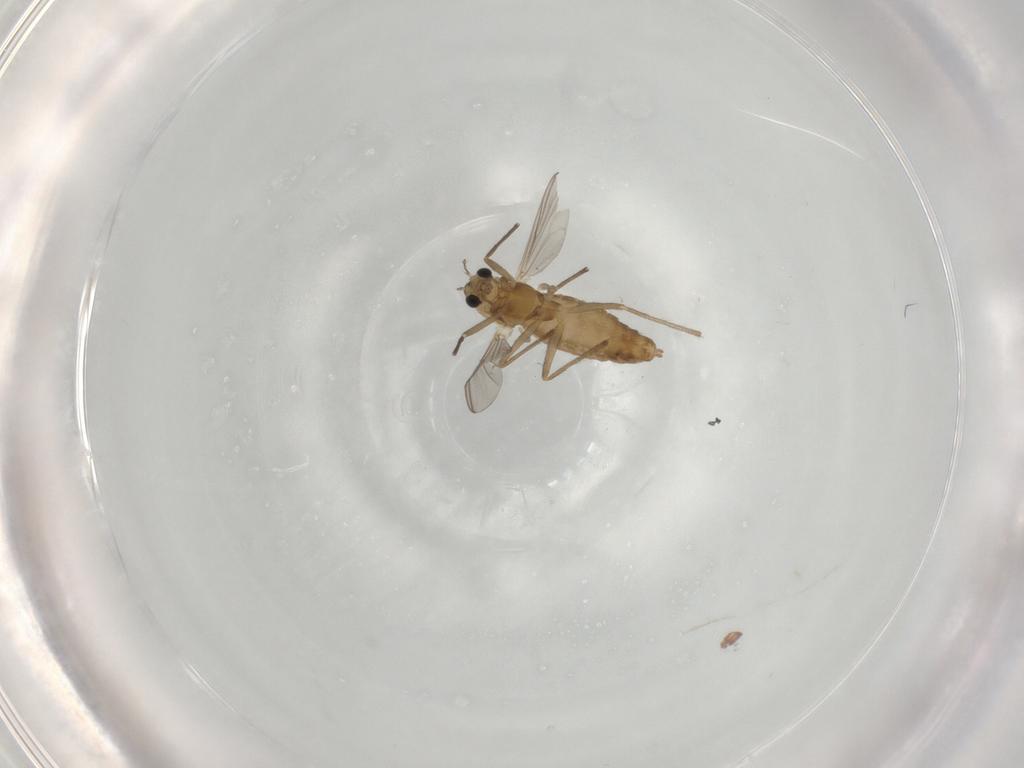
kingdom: Animalia
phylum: Arthropoda
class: Insecta
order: Diptera
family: Chironomidae
